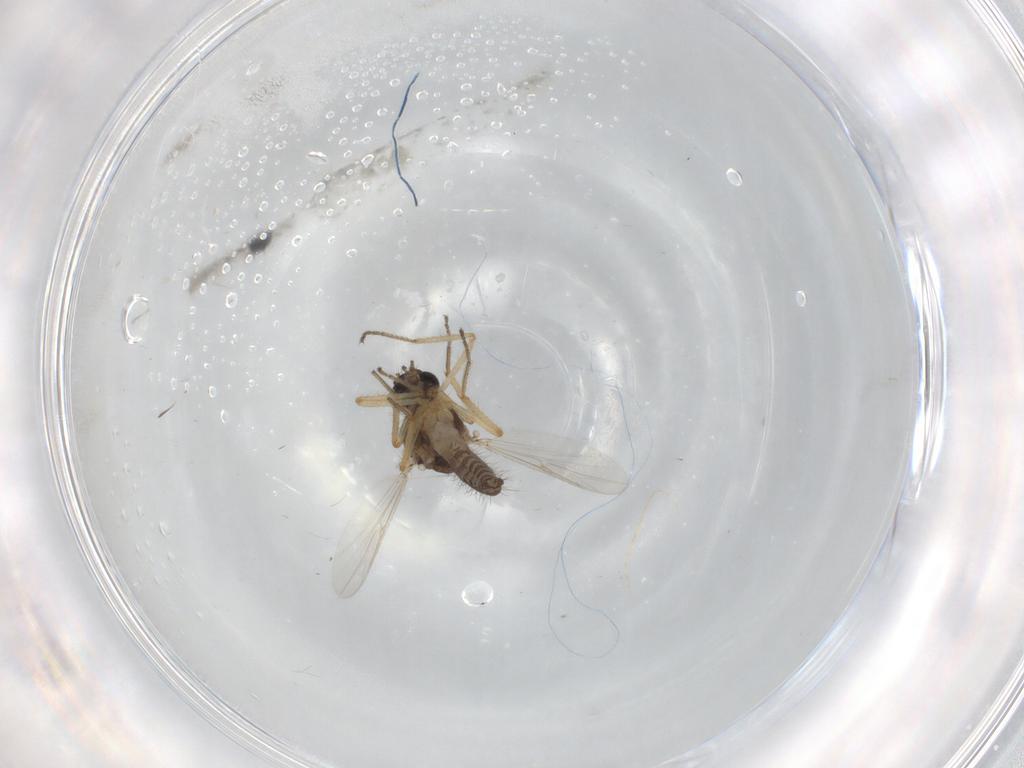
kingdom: Animalia
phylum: Arthropoda
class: Insecta
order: Diptera
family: Ceratopogonidae
